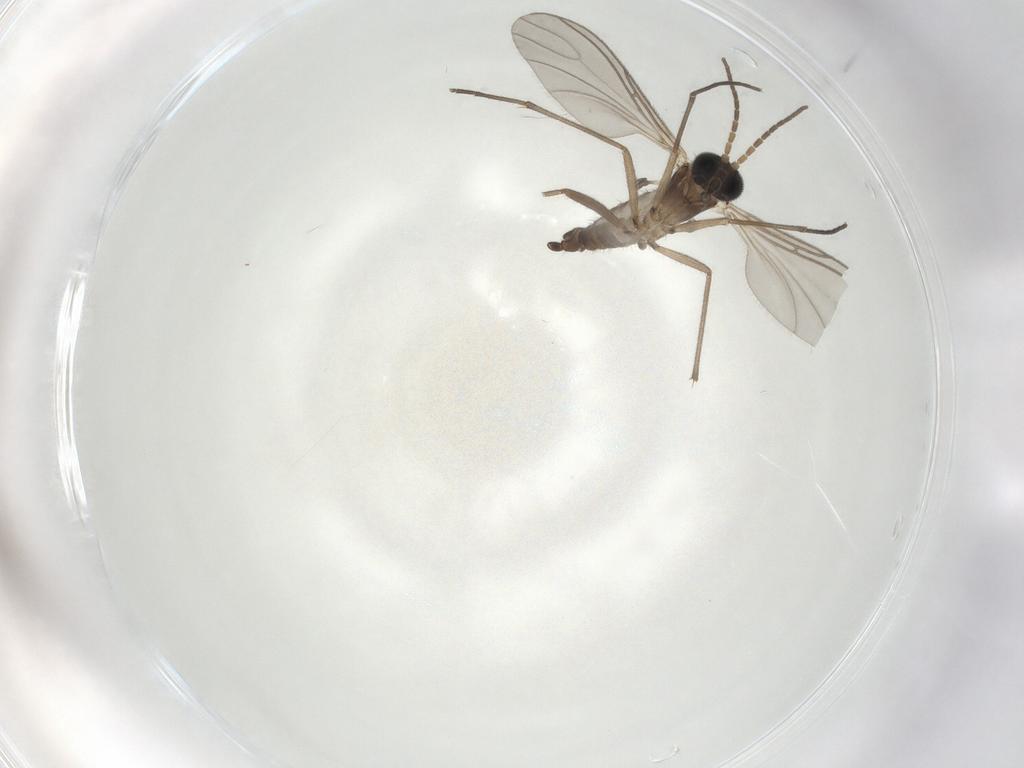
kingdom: Animalia
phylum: Arthropoda
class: Insecta
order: Diptera
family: Sciaridae
